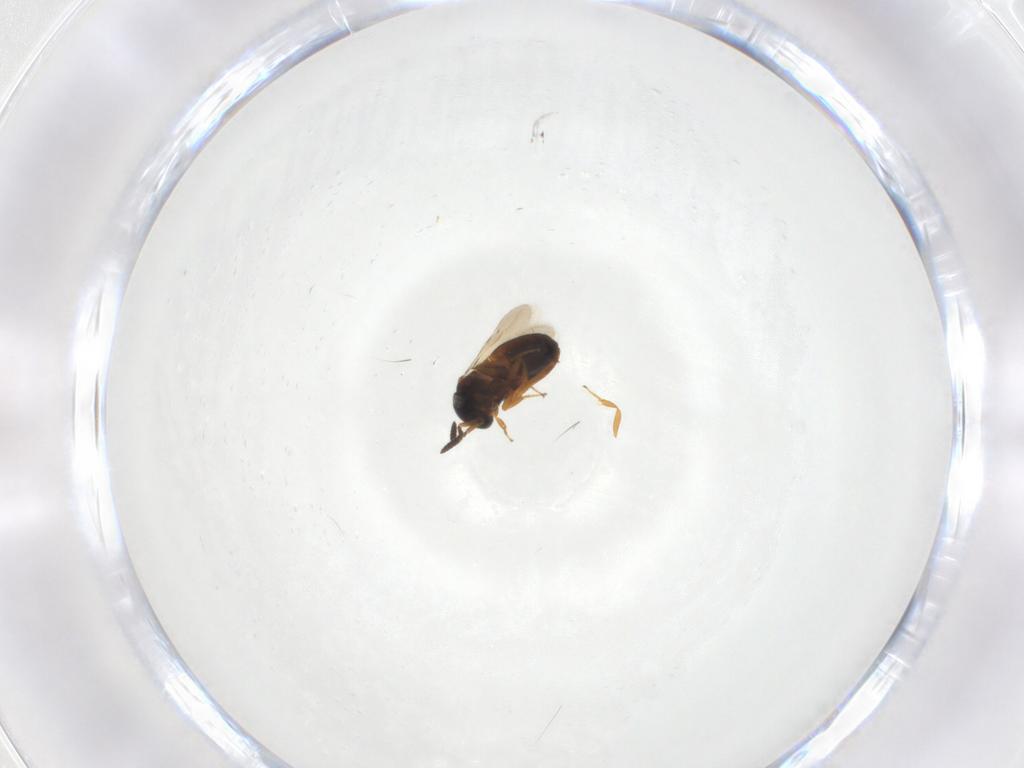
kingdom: Animalia
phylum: Arthropoda
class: Insecta
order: Hymenoptera
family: Scelionidae
